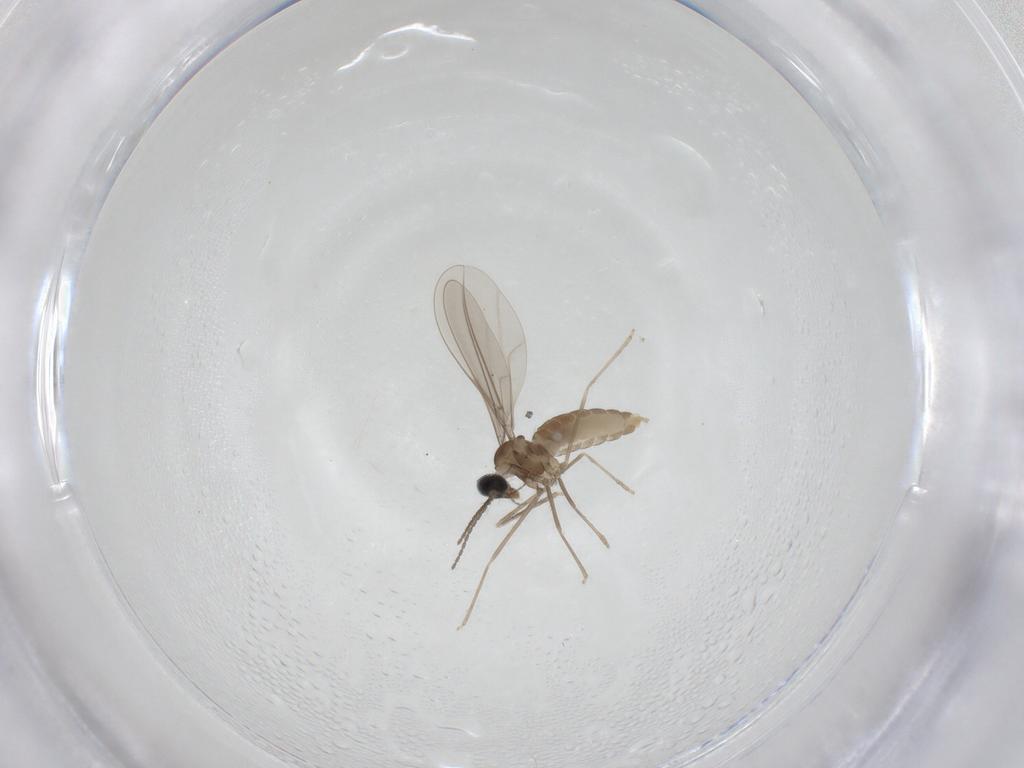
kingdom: Animalia
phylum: Arthropoda
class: Insecta
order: Diptera
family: Cecidomyiidae
